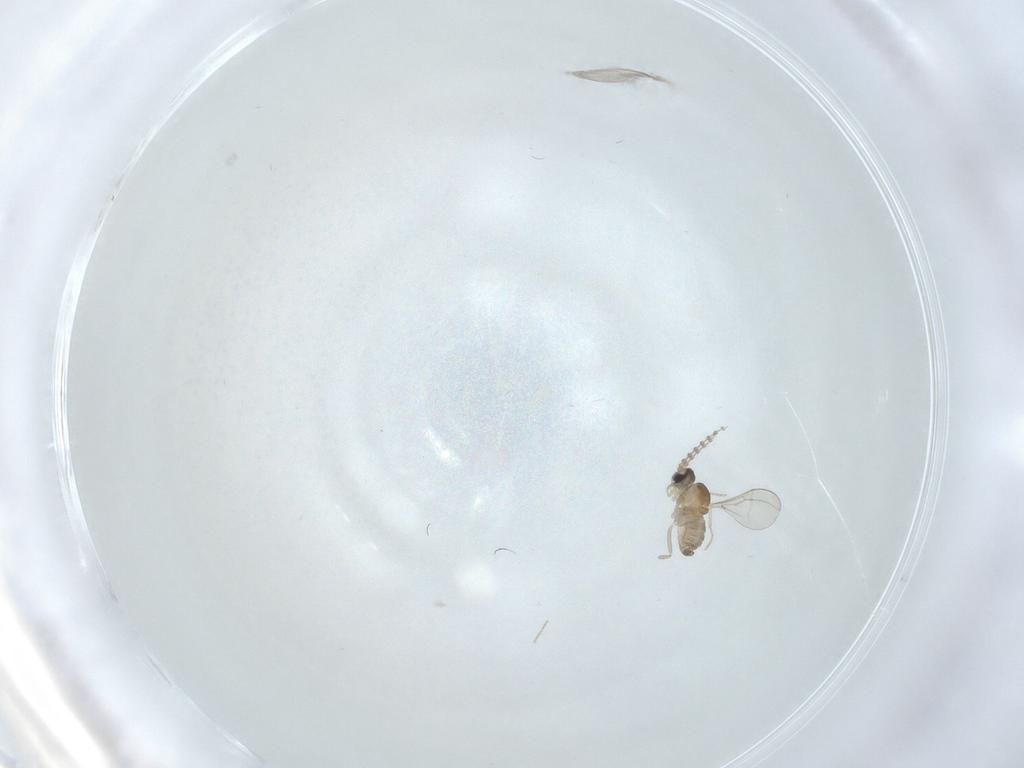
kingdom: Animalia
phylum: Arthropoda
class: Insecta
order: Diptera
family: Cecidomyiidae
